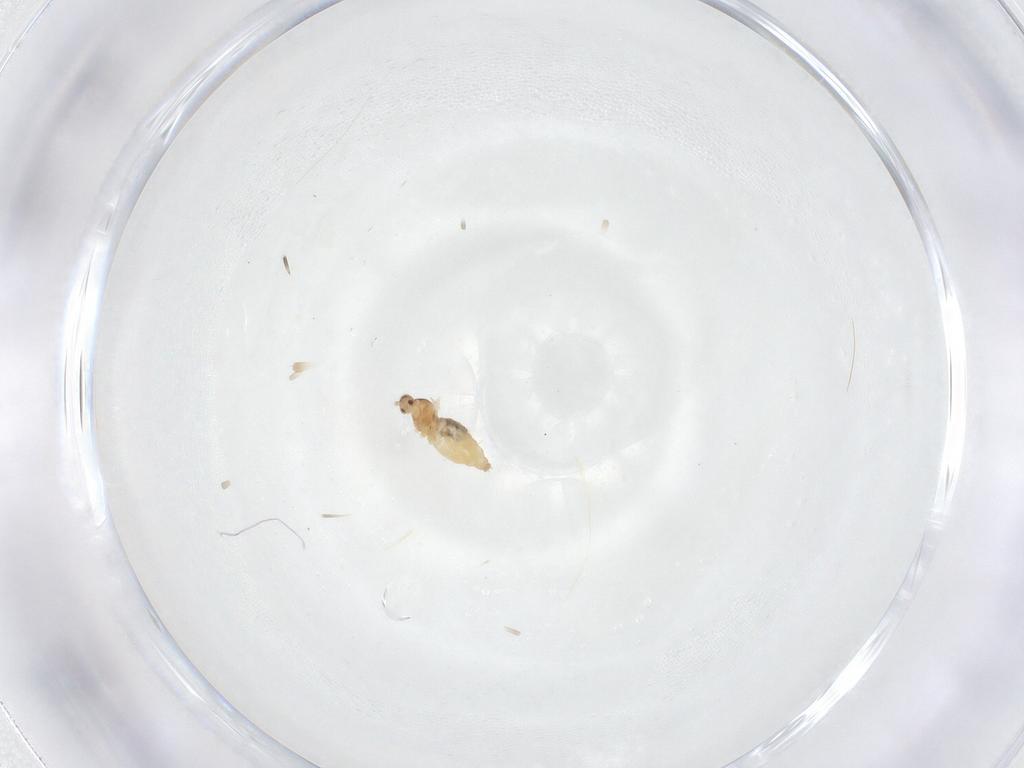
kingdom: Animalia
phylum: Arthropoda
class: Insecta
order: Diptera
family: Cecidomyiidae
